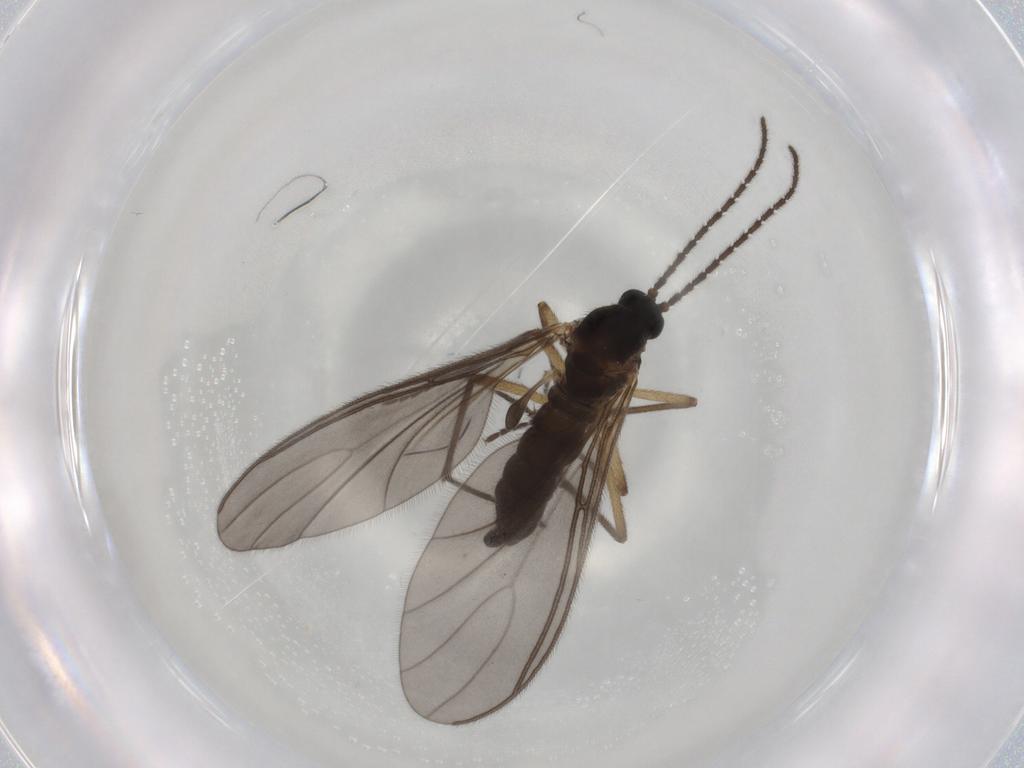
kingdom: Animalia
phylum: Arthropoda
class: Insecta
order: Diptera
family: Sciaridae
